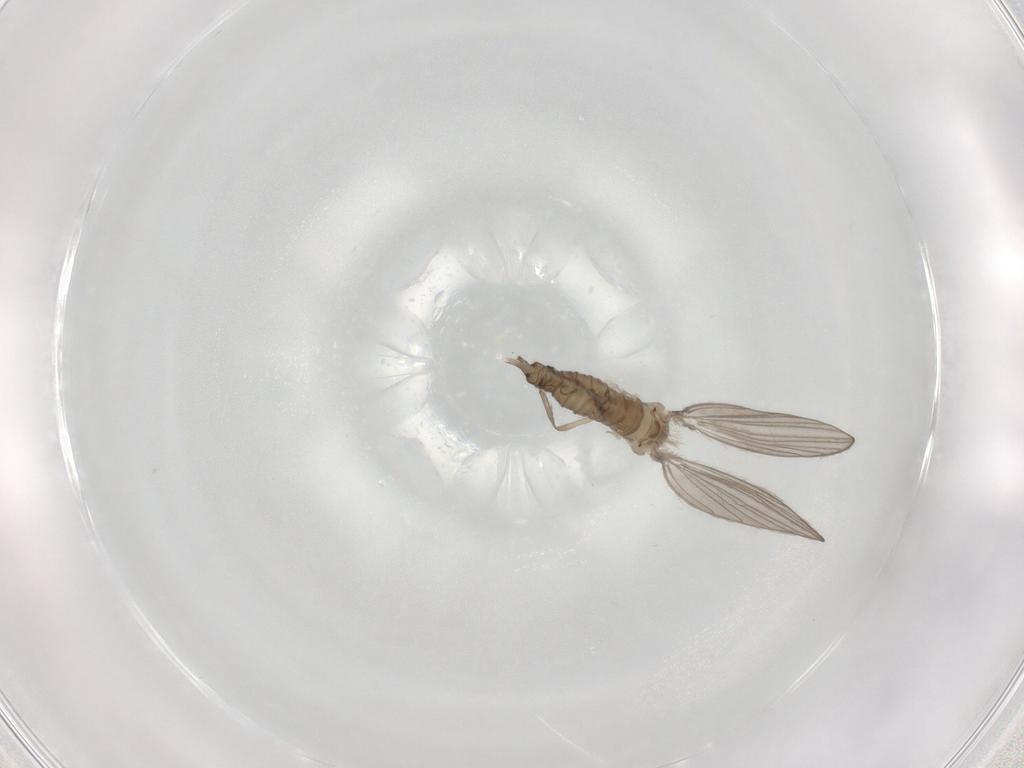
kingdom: Animalia
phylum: Arthropoda
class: Insecta
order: Diptera
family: Psychodidae
